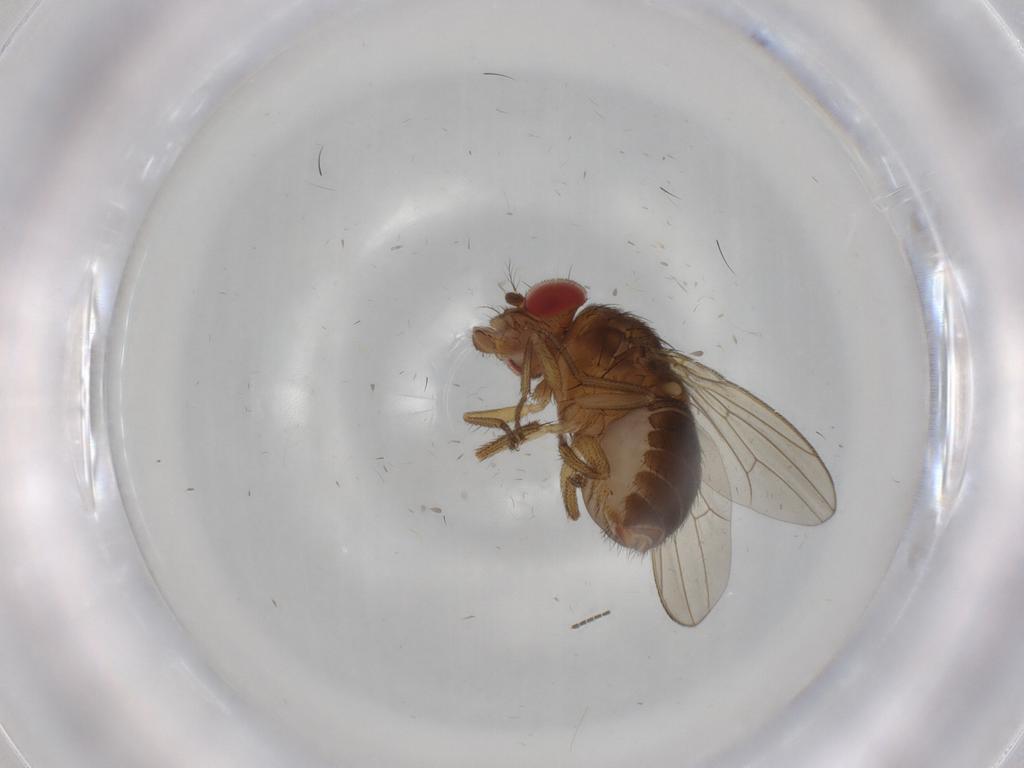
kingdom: Animalia
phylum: Arthropoda
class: Insecta
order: Diptera
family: Drosophilidae
